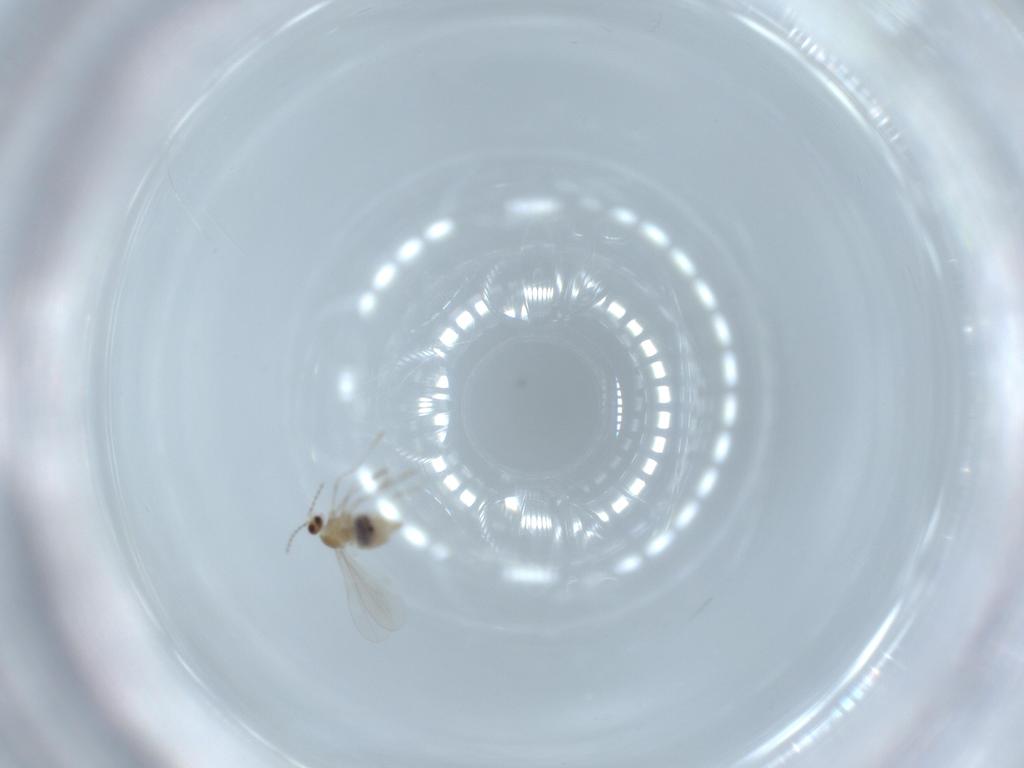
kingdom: Animalia
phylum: Arthropoda
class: Insecta
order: Diptera
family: Cecidomyiidae
